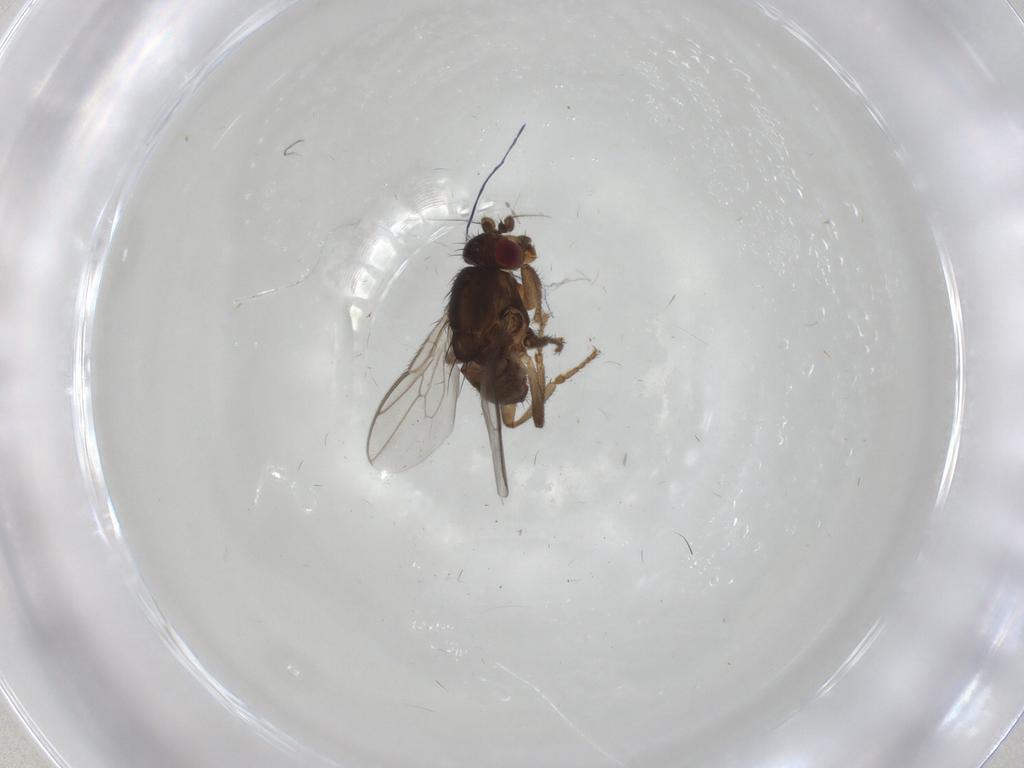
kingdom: Animalia
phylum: Arthropoda
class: Insecta
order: Diptera
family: Sphaeroceridae
